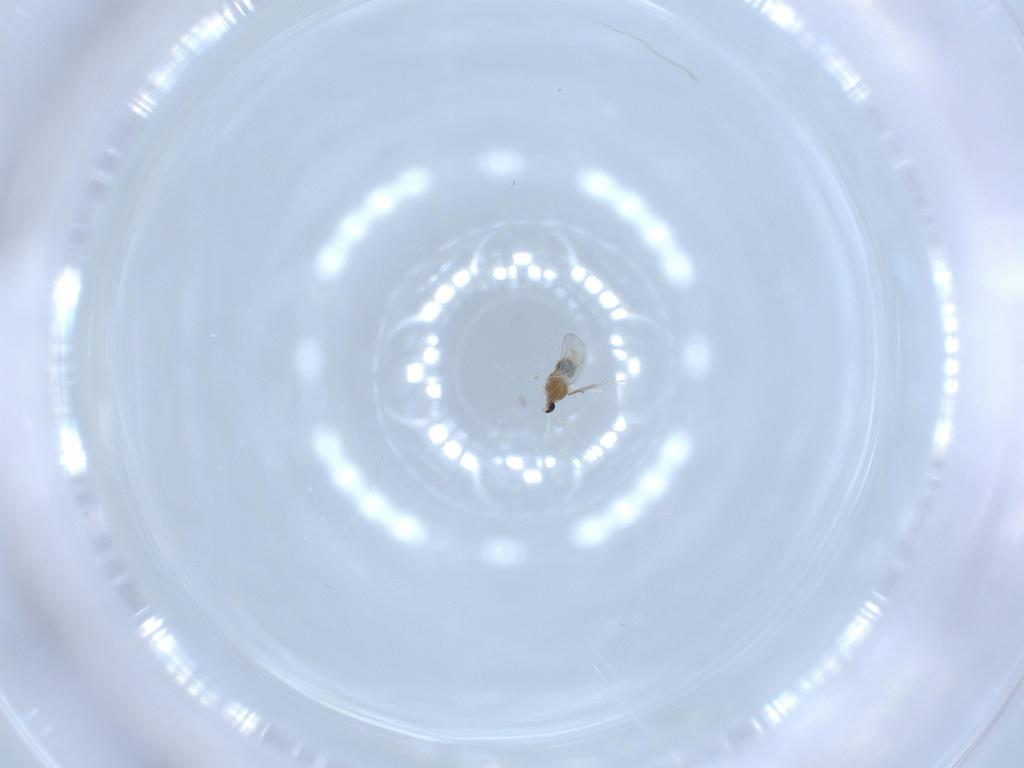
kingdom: Animalia
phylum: Arthropoda
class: Insecta
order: Diptera
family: Cecidomyiidae
